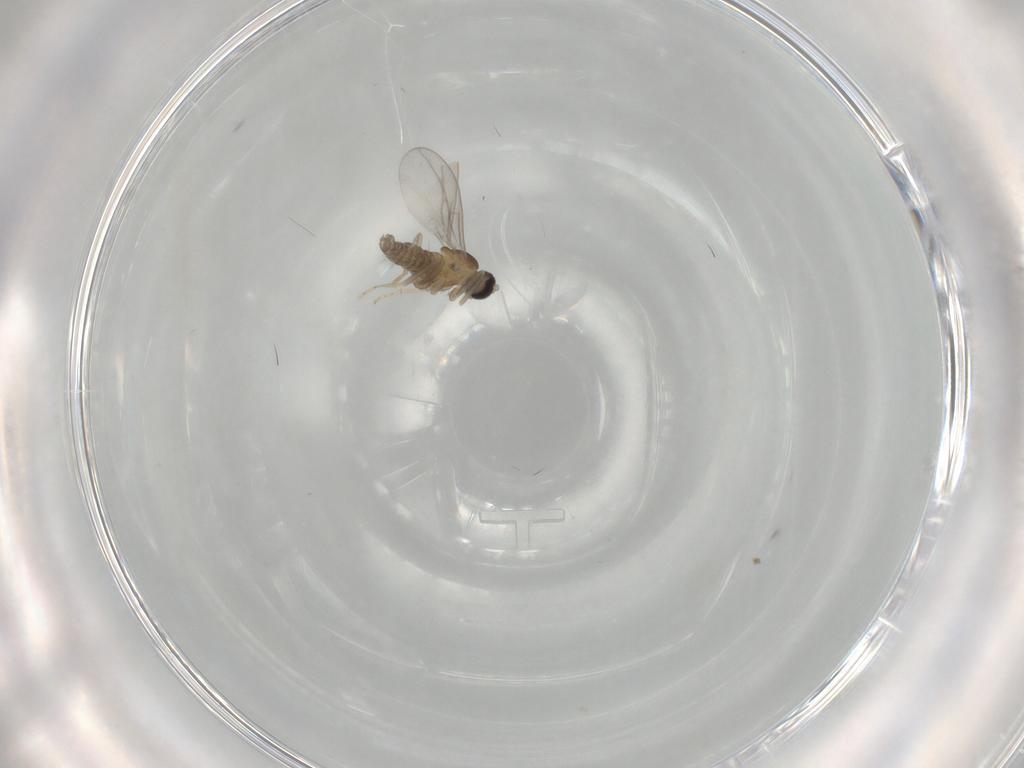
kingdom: Animalia
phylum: Arthropoda
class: Insecta
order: Diptera
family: Cecidomyiidae
